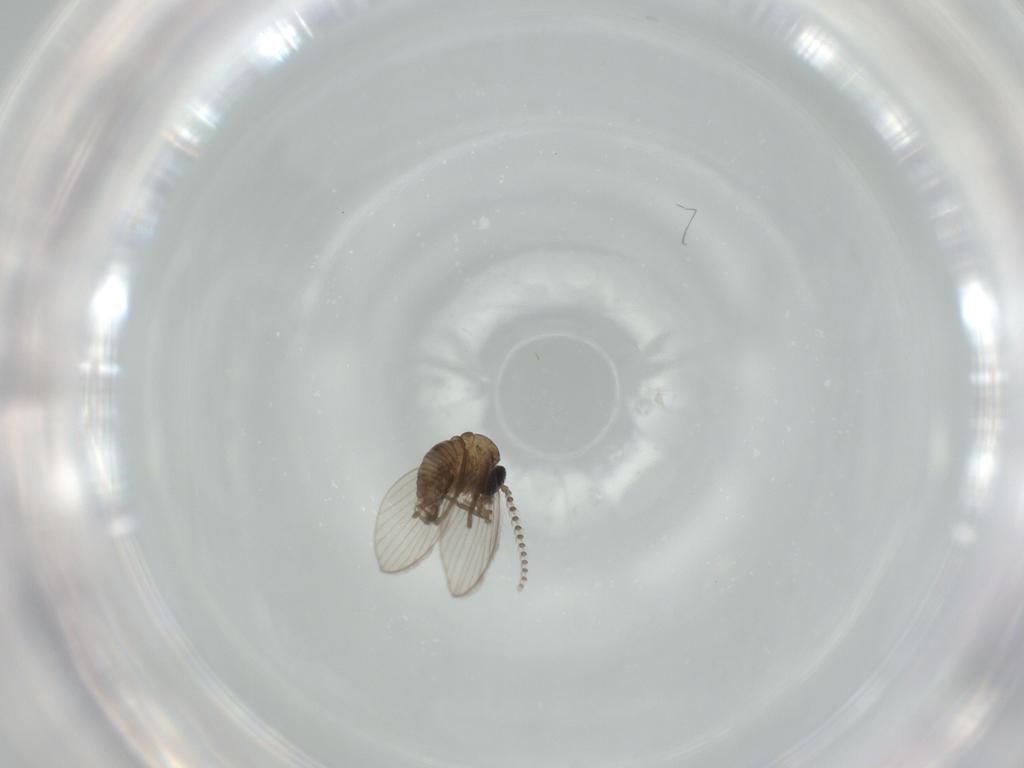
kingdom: Animalia
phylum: Arthropoda
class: Insecta
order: Diptera
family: Psychodidae
